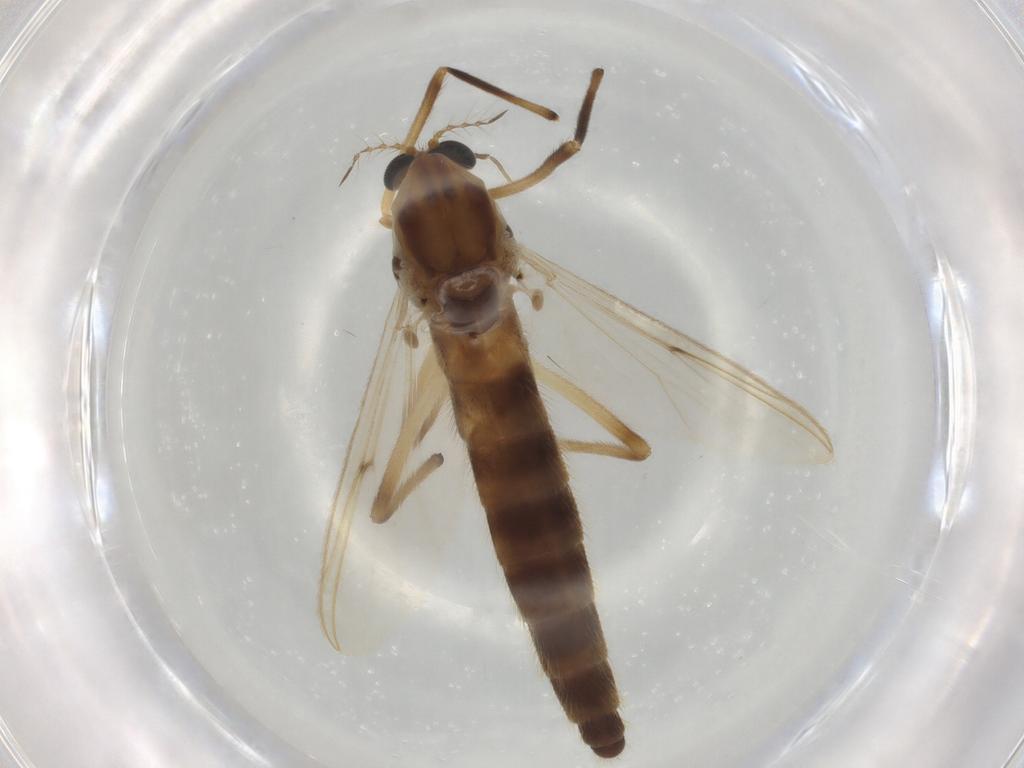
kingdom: Animalia
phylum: Arthropoda
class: Insecta
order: Diptera
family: Chironomidae
